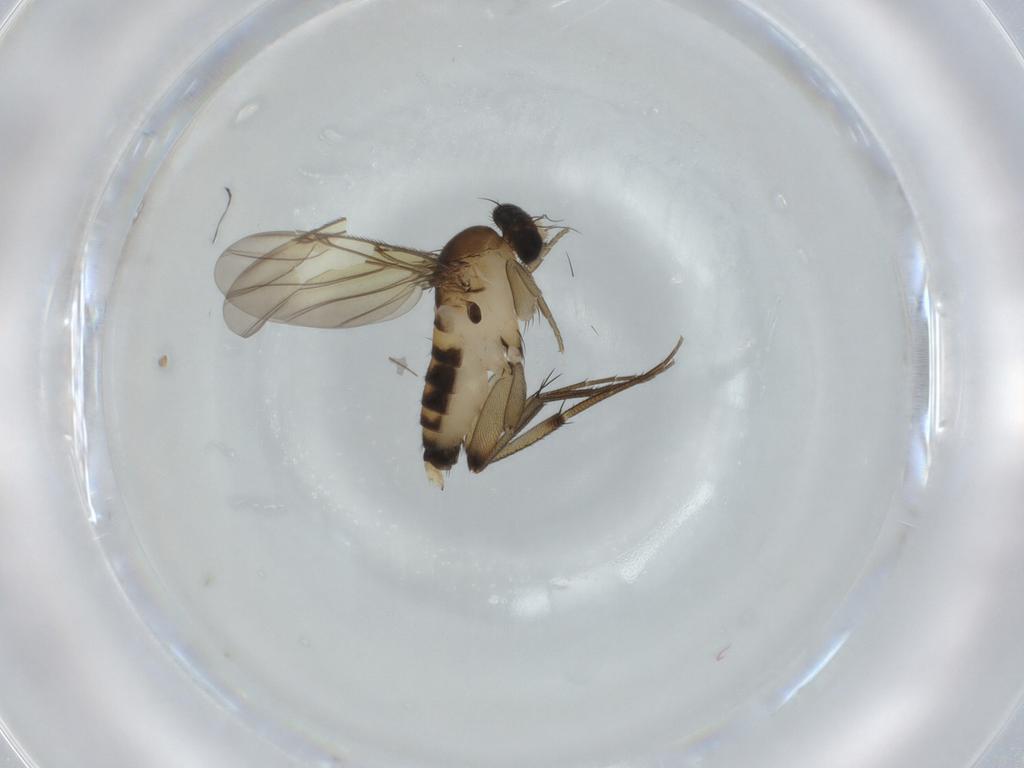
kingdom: Animalia
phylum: Arthropoda
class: Insecta
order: Diptera
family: Phoridae
